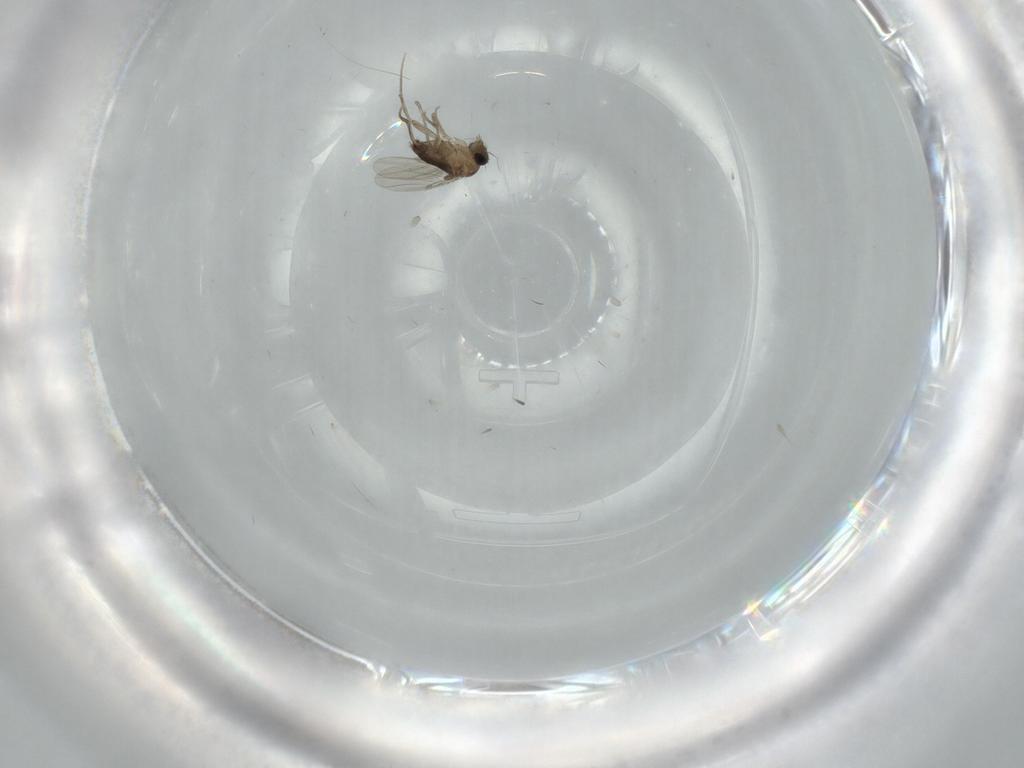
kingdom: Animalia
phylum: Arthropoda
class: Insecta
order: Diptera
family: Phoridae
